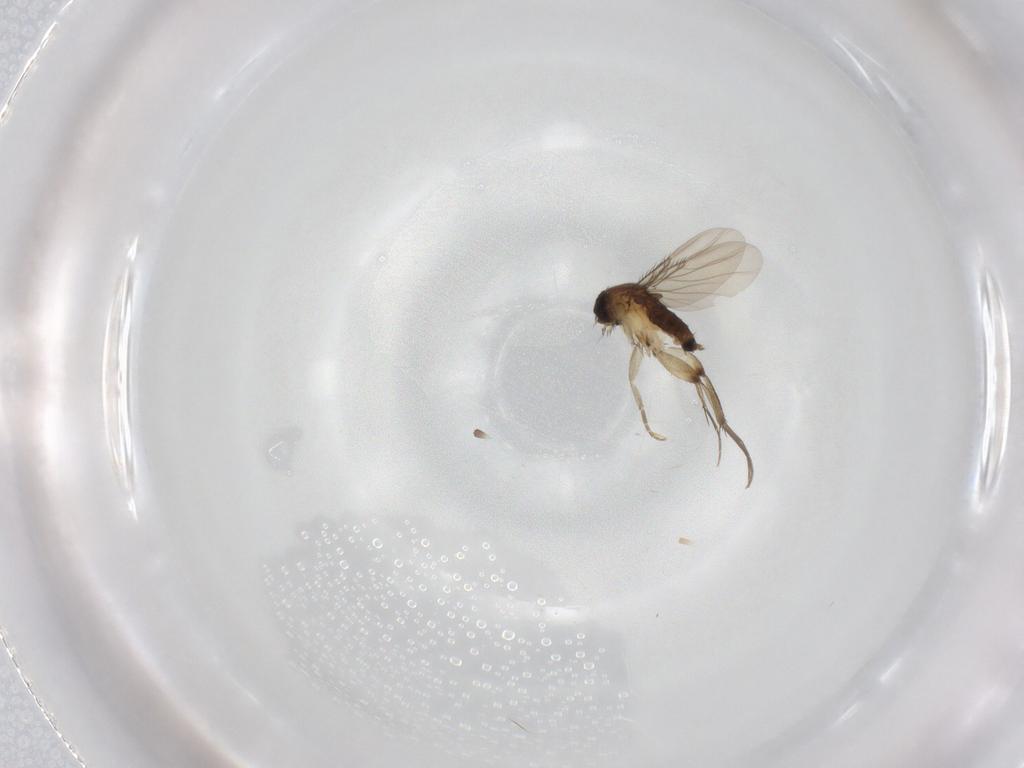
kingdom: Animalia
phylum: Arthropoda
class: Insecta
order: Diptera
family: Phoridae
